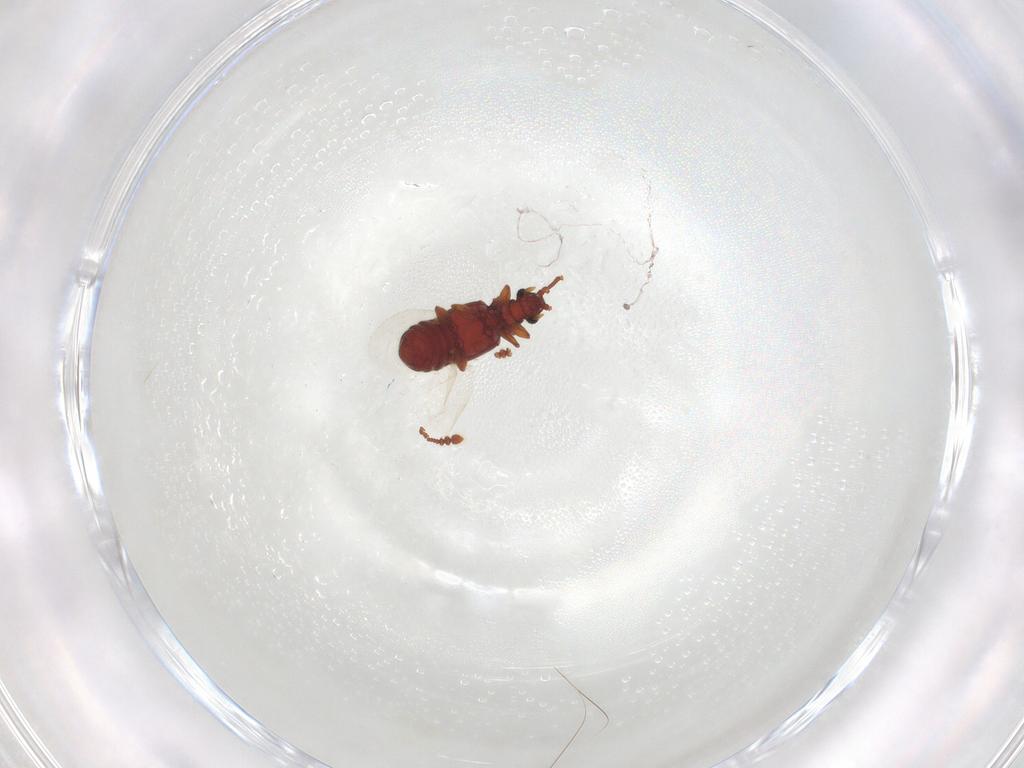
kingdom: Animalia
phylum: Arthropoda
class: Insecta
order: Coleoptera
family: Staphylinidae
